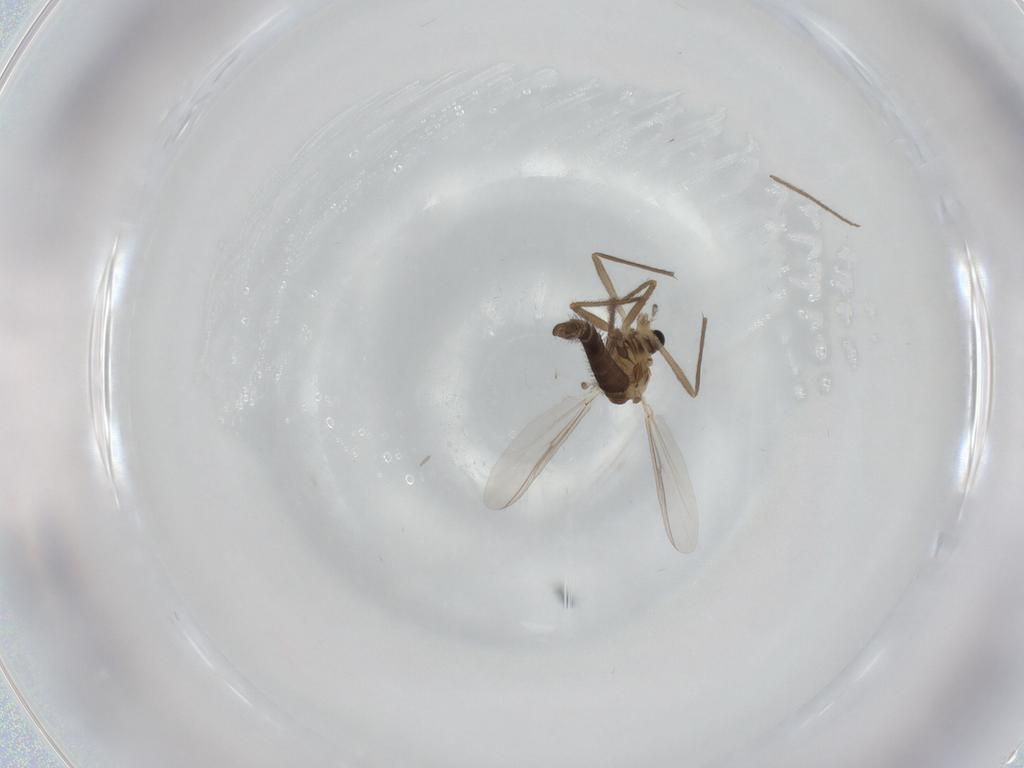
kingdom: Animalia
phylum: Arthropoda
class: Insecta
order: Diptera
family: Chironomidae
